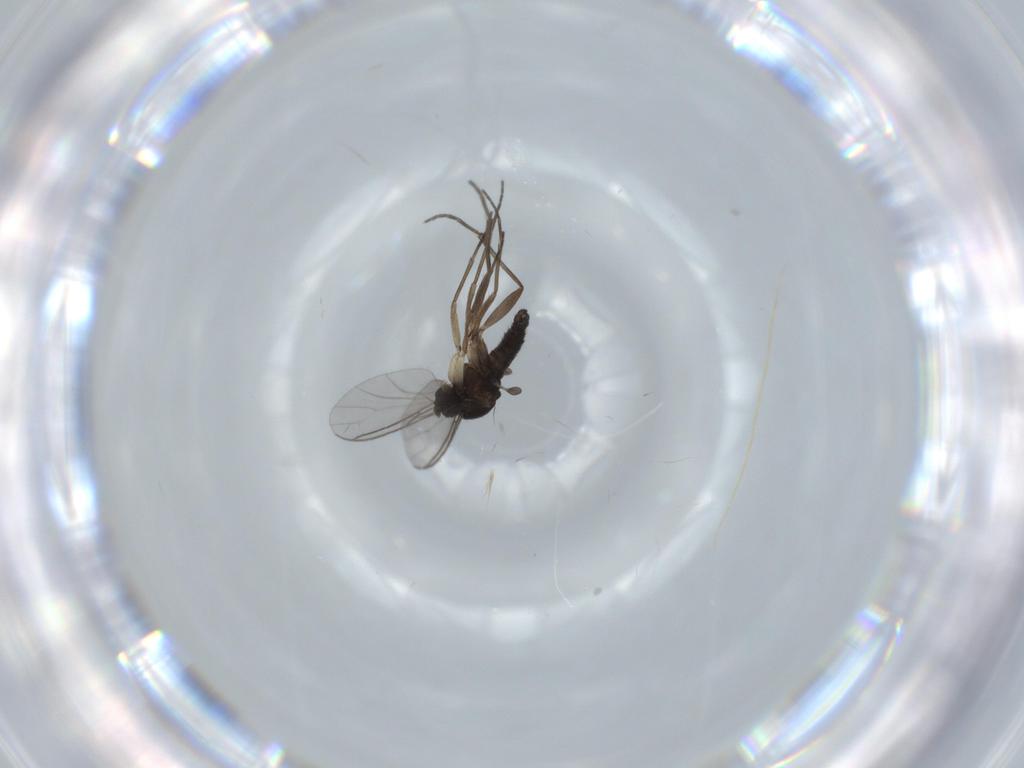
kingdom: Animalia
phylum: Arthropoda
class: Insecta
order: Diptera
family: Sciaridae
